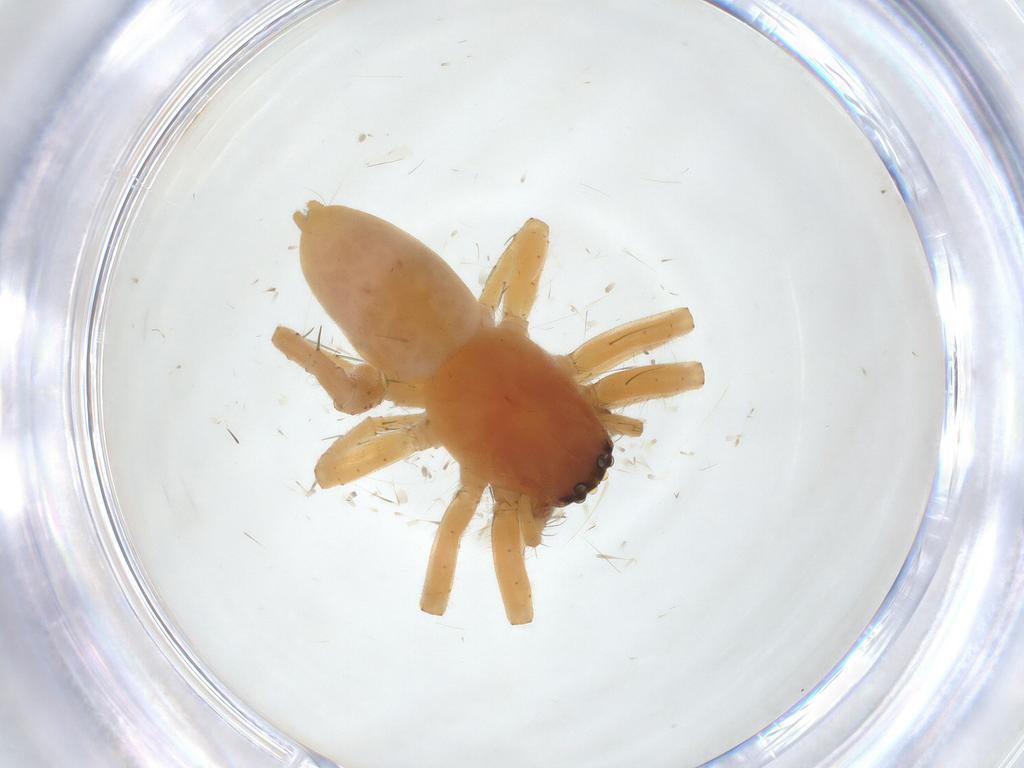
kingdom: Animalia
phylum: Arthropoda
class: Arachnida
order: Araneae
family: Clubionidae
